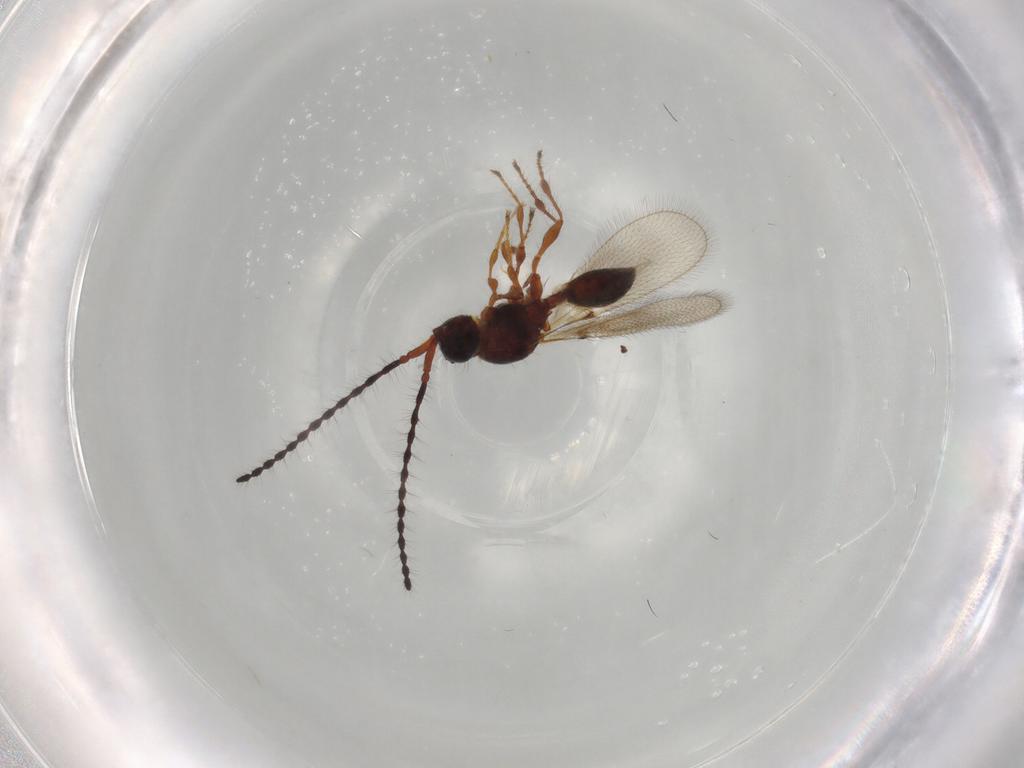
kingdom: Animalia
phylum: Arthropoda
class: Insecta
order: Hymenoptera
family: Diapriidae
